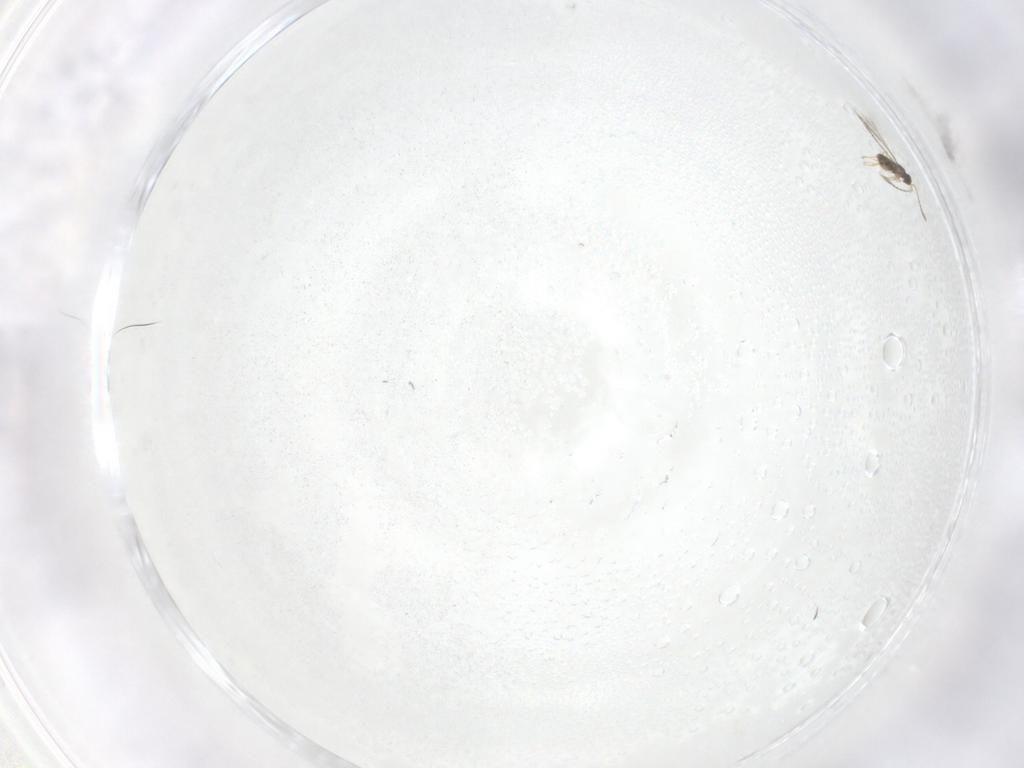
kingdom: Animalia
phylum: Arthropoda
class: Insecta
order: Hymenoptera
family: Mymaridae
